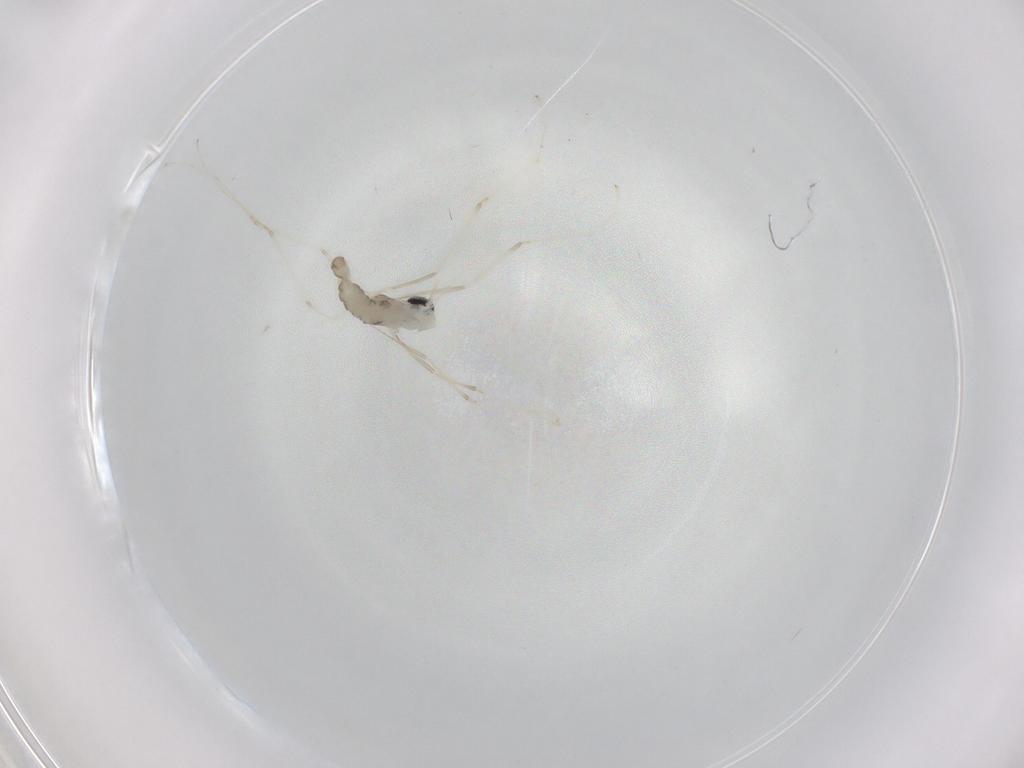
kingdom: Animalia
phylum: Arthropoda
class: Insecta
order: Diptera
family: Cecidomyiidae
